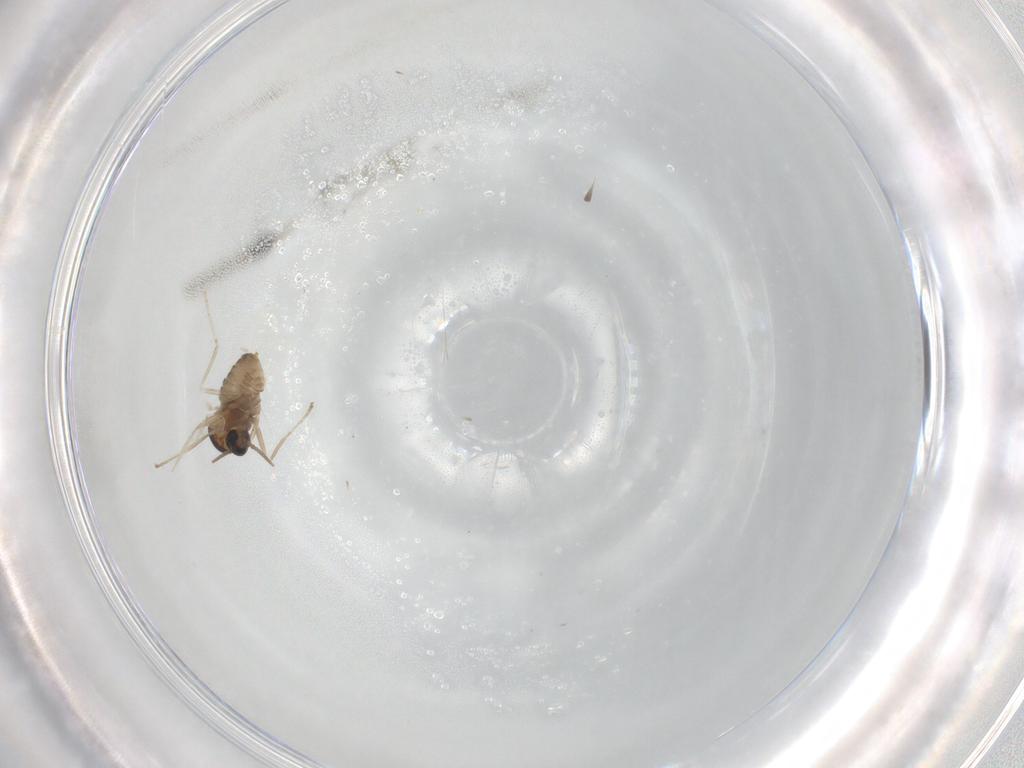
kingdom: Animalia
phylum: Arthropoda
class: Insecta
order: Diptera
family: Cecidomyiidae
